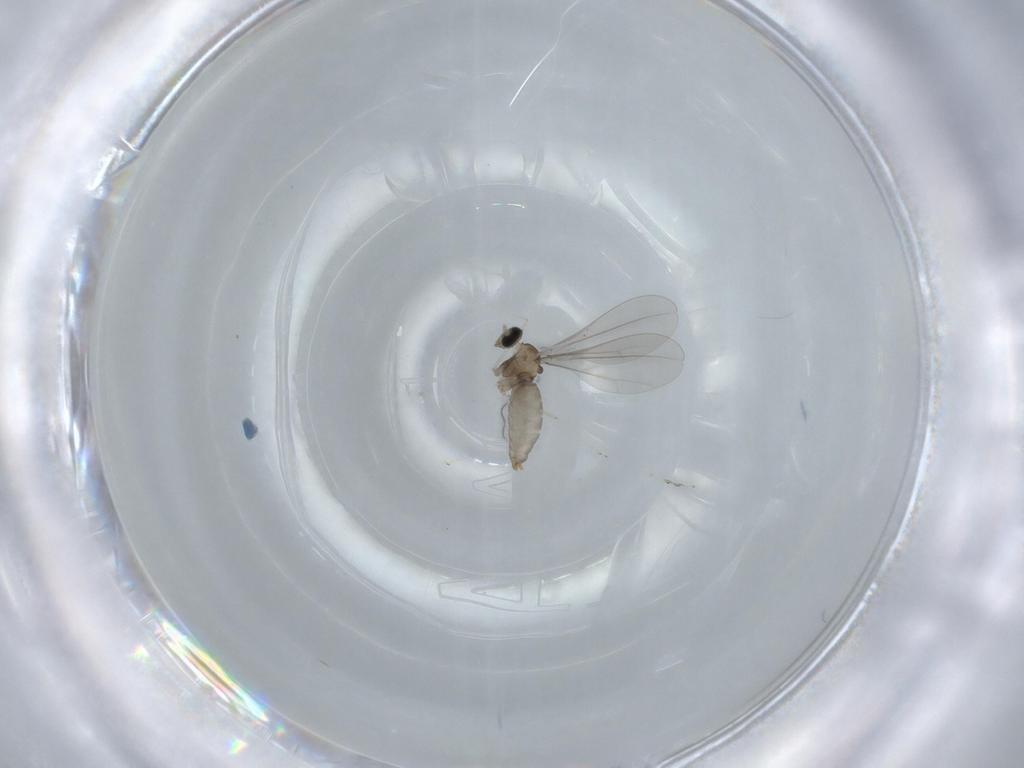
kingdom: Animalia
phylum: Arthropoda
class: Insecta
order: Diptera
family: Cecidomyiidae
